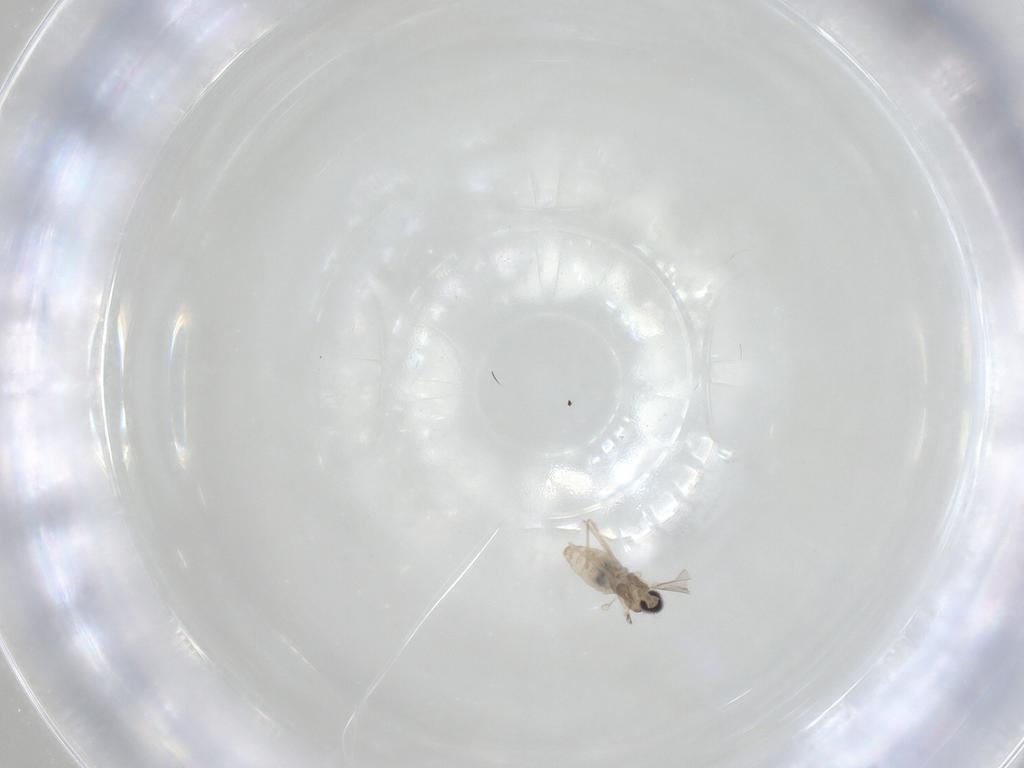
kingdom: Animalia
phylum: Arthropoda
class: Insecta
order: Diptera
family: Cecidomyiidae
